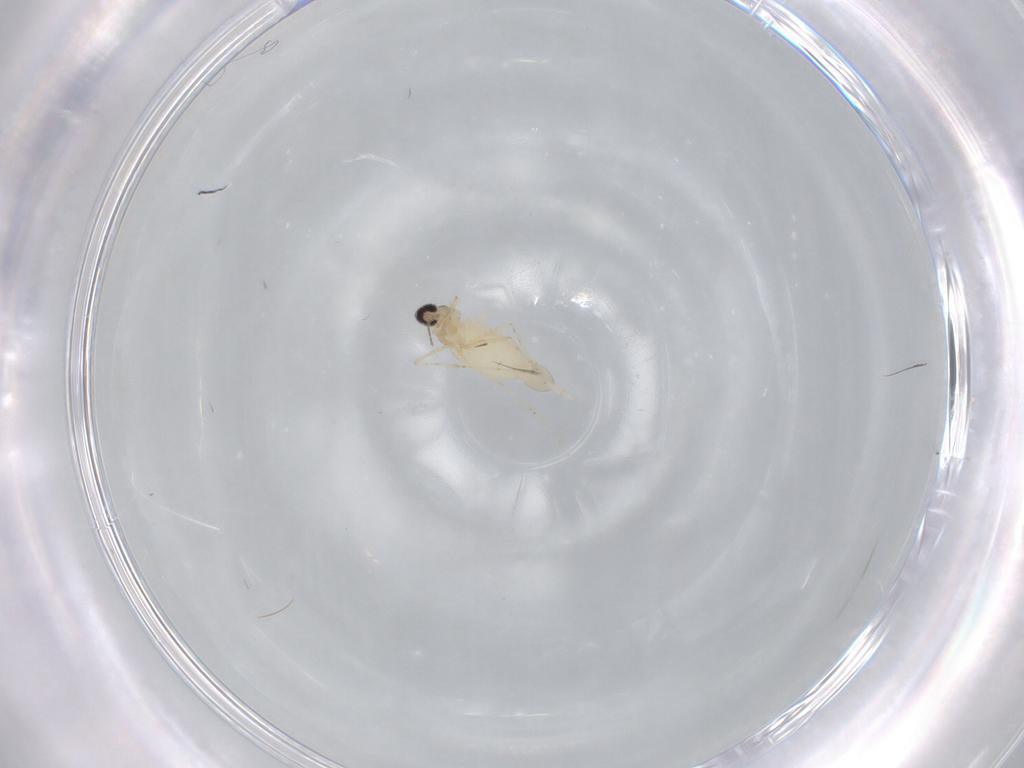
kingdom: Animalia
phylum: Arthropoda
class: Insecta
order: Diptera
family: Cecidomyiidae
